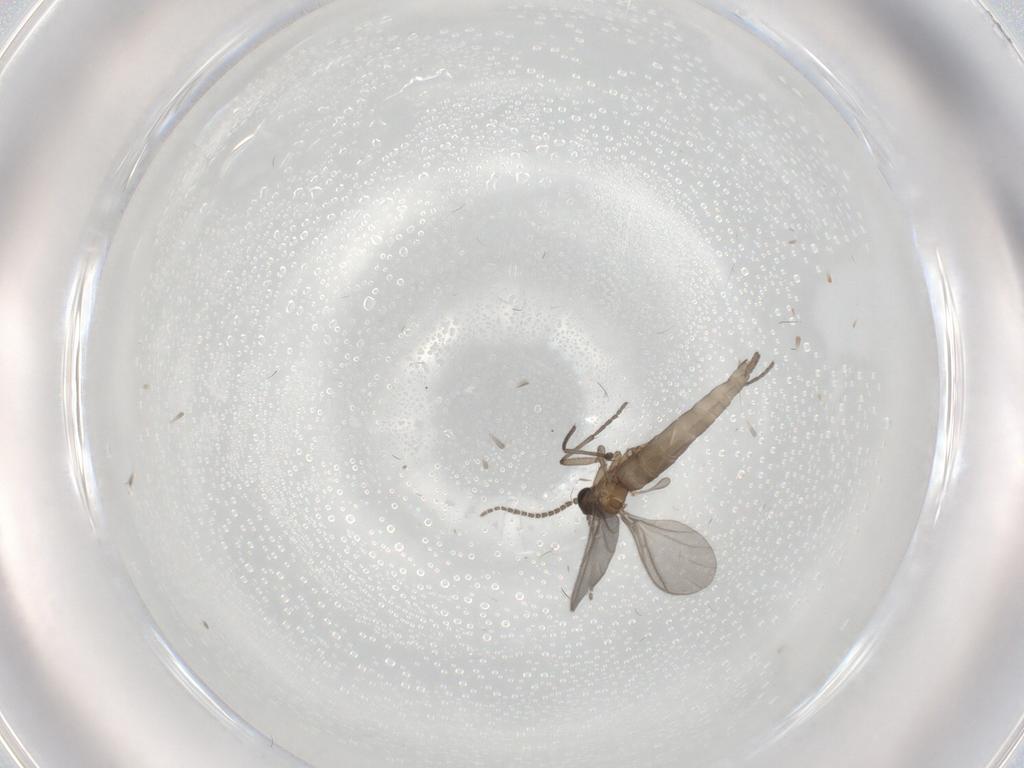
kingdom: Animalia
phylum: Arthropoda
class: Insecta
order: Diptera
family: Sciaridae
